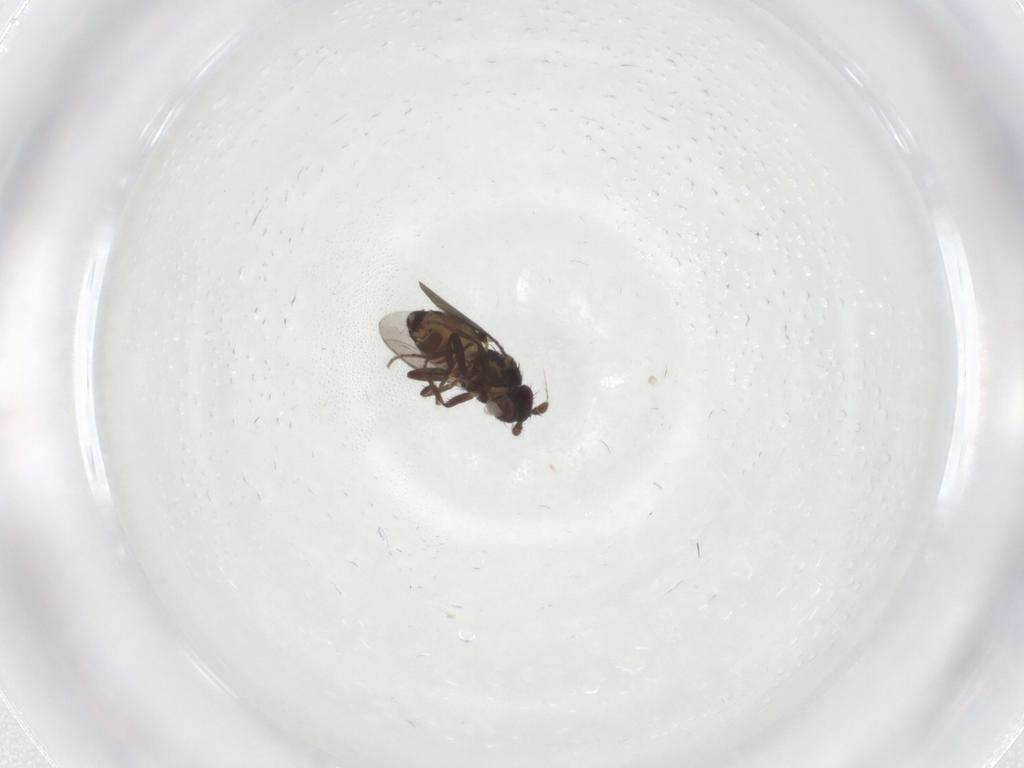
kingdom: Animalia
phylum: Arthropoda
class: Insecta
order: Diptera
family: Sphaeroceridae
